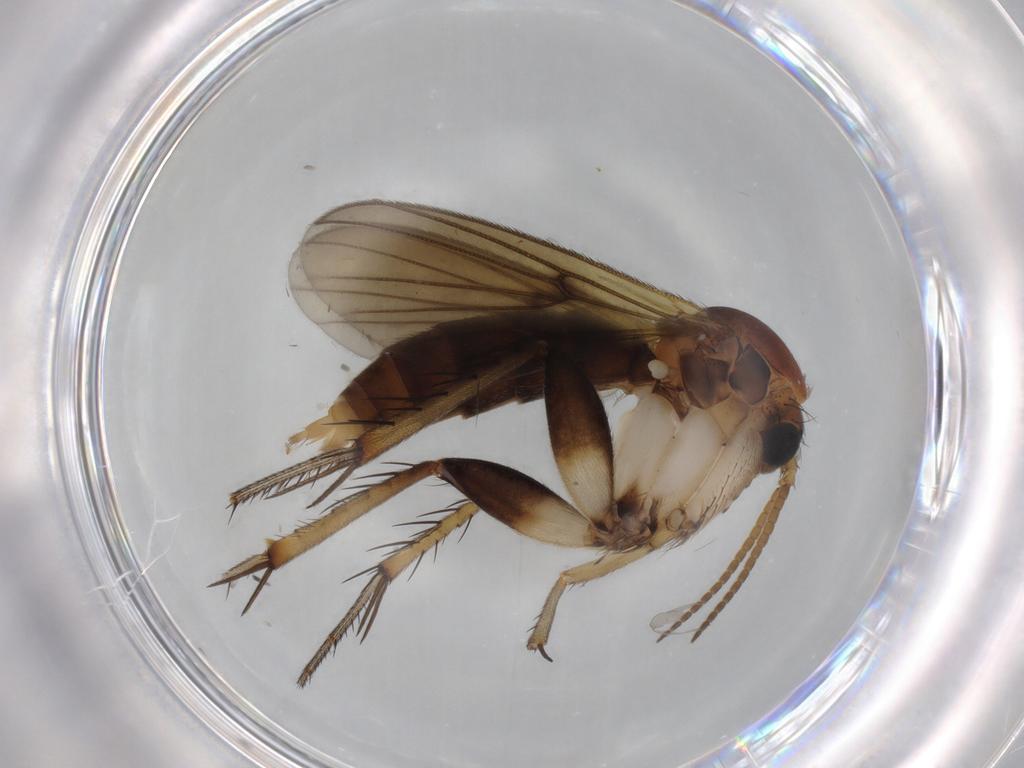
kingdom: Animalia
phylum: Arthropoda
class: Insecta
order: Diptera
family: Mycetophilidae
